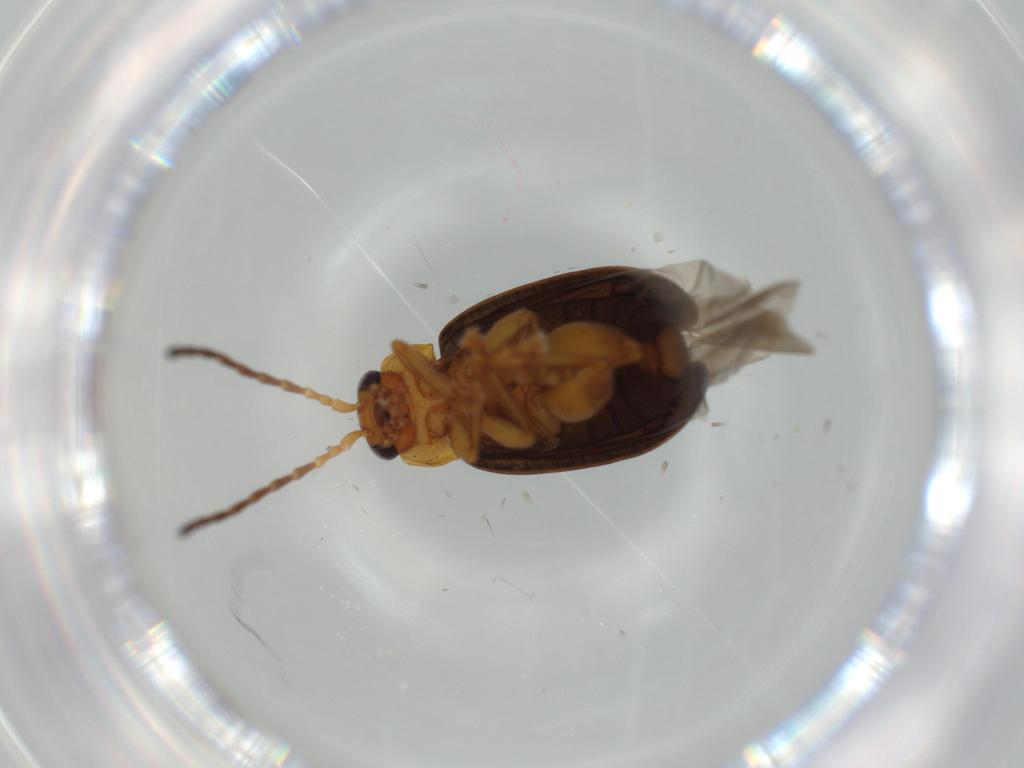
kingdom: Animalia
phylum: Arthropoda
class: Insecta
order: Coleoptera
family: Chrysomelidae
